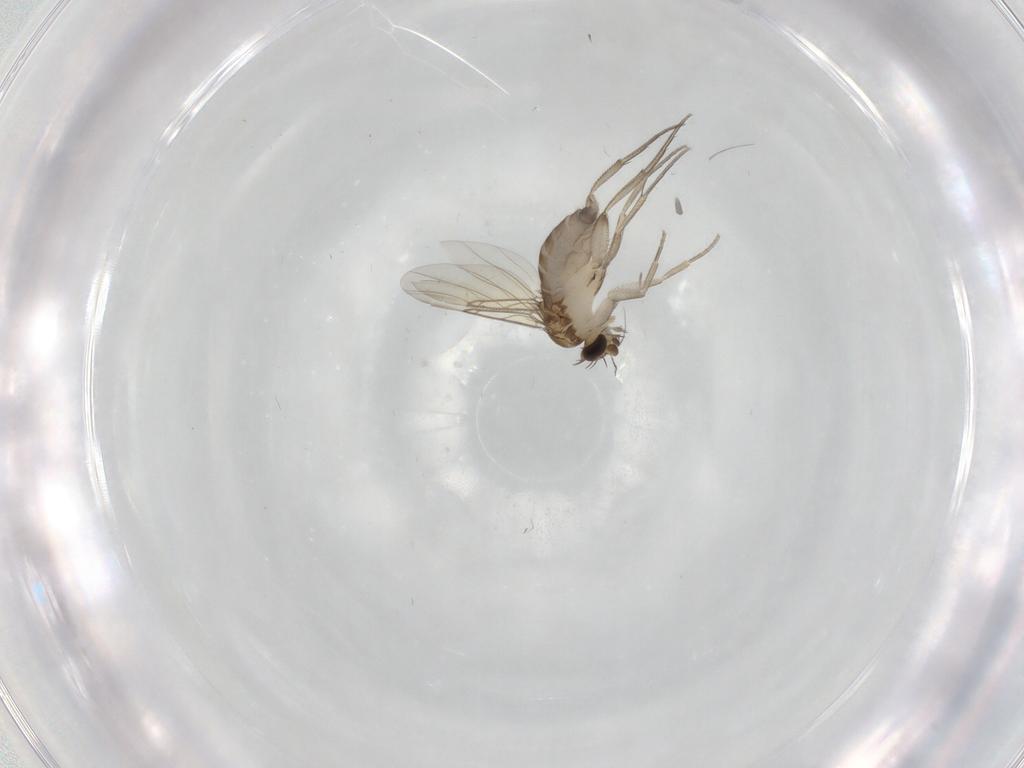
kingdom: Animalia
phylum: Arthropoda
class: Insecta
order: Diptera
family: Phoridae
